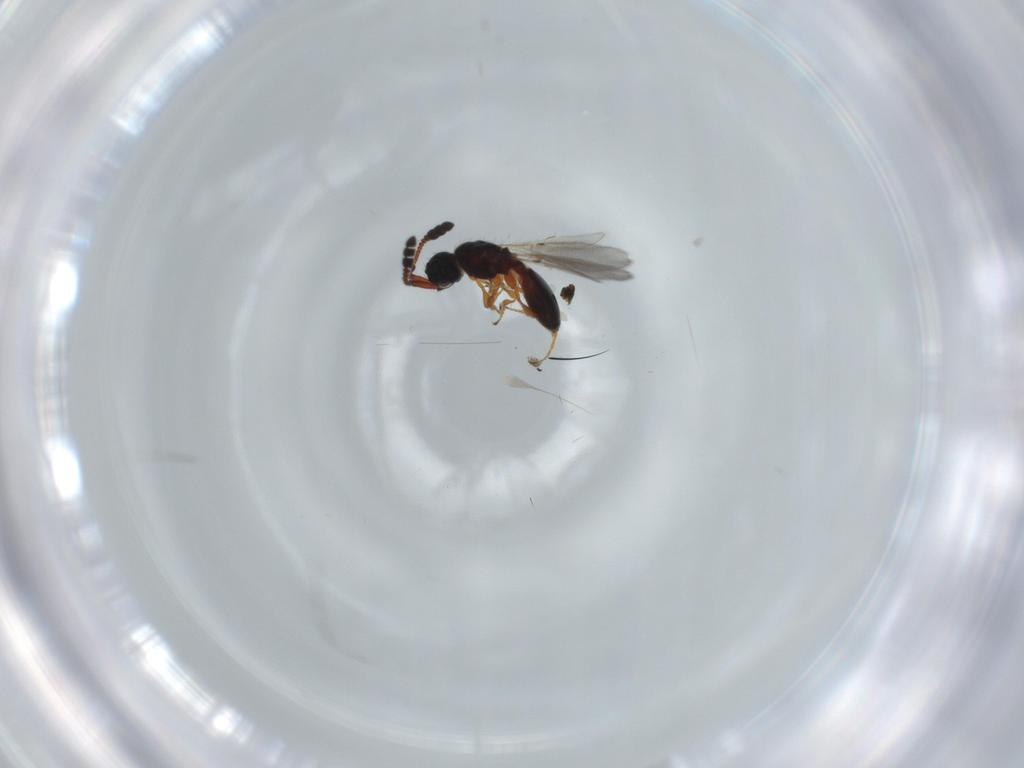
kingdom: Animalia
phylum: Arthropoda
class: Insecta
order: Hymenoptera
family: Diapriidae
